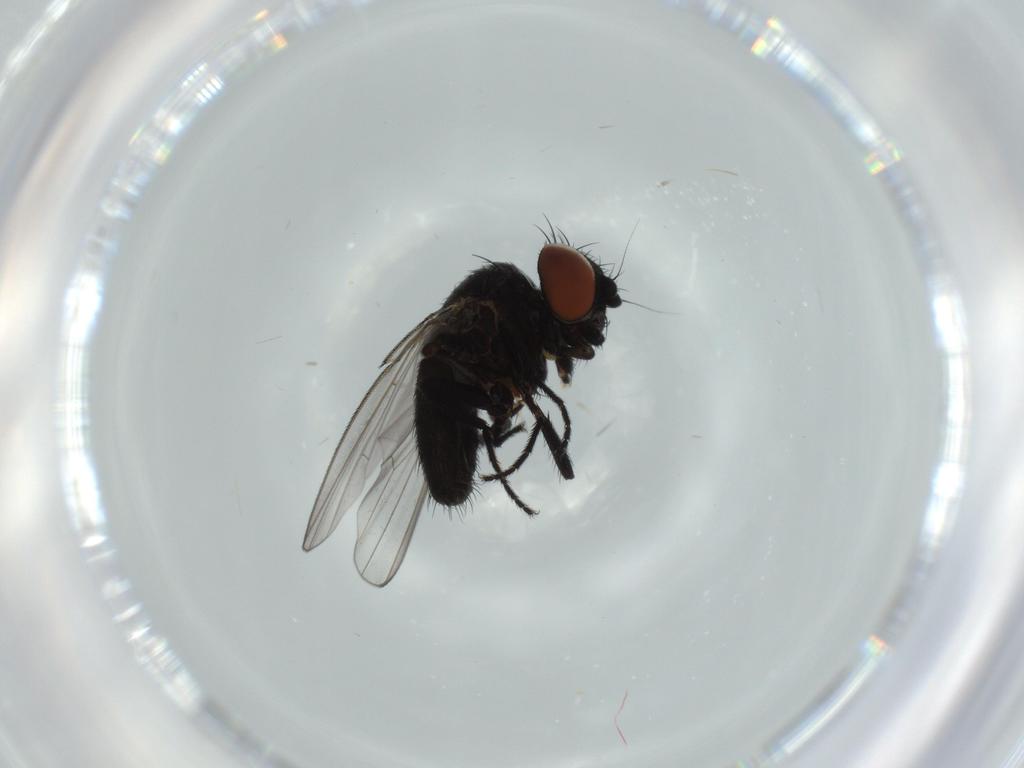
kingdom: Animalia
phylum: Arthropoda
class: Insecta
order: Diptera
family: Milichiidae
